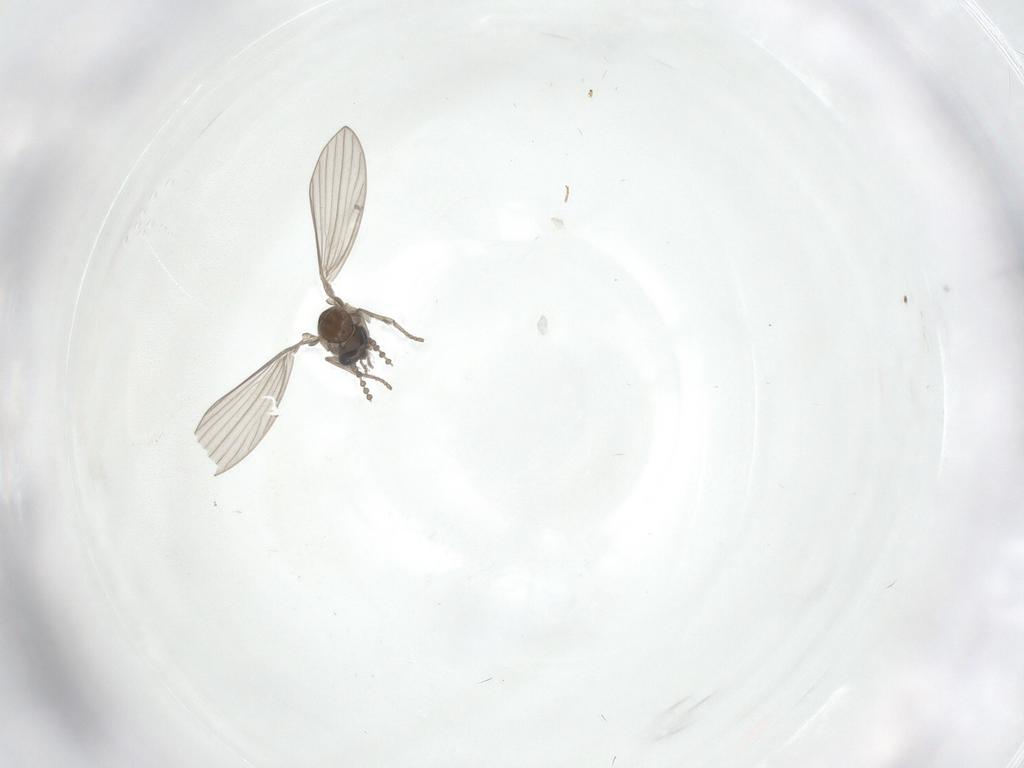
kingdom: Animalia
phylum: Arthropoda
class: Insecta
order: Diptera
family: Psychodidae
